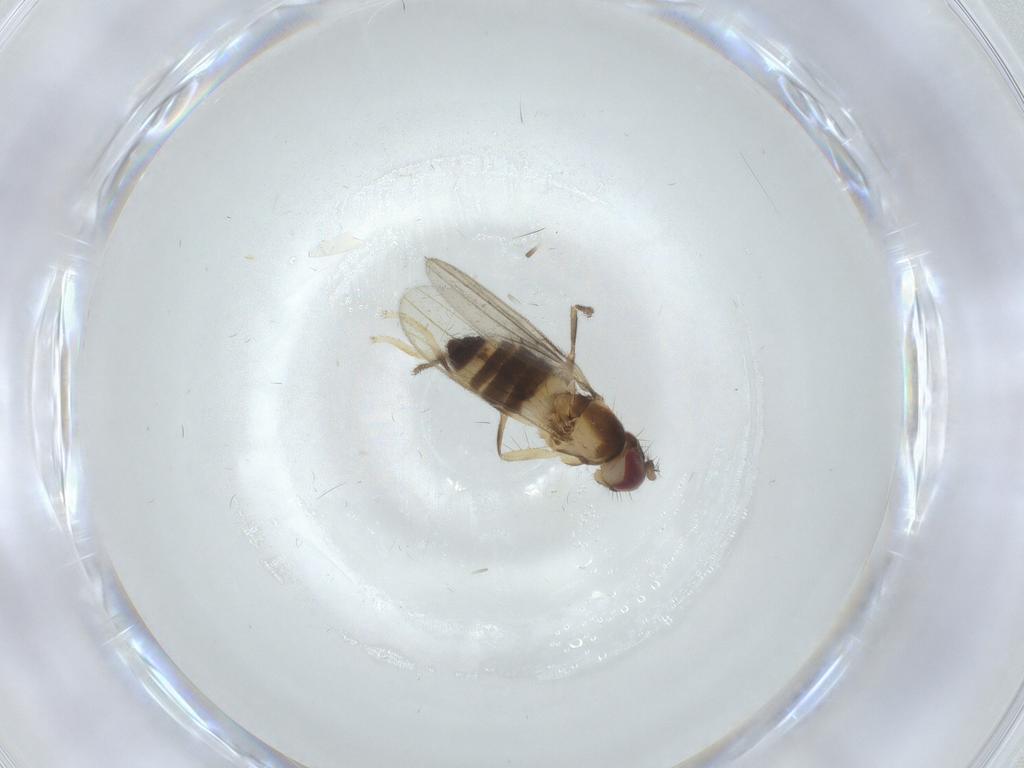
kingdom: Animalia
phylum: Arthropoda
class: Insecta
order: Diptera
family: Periscelididae
